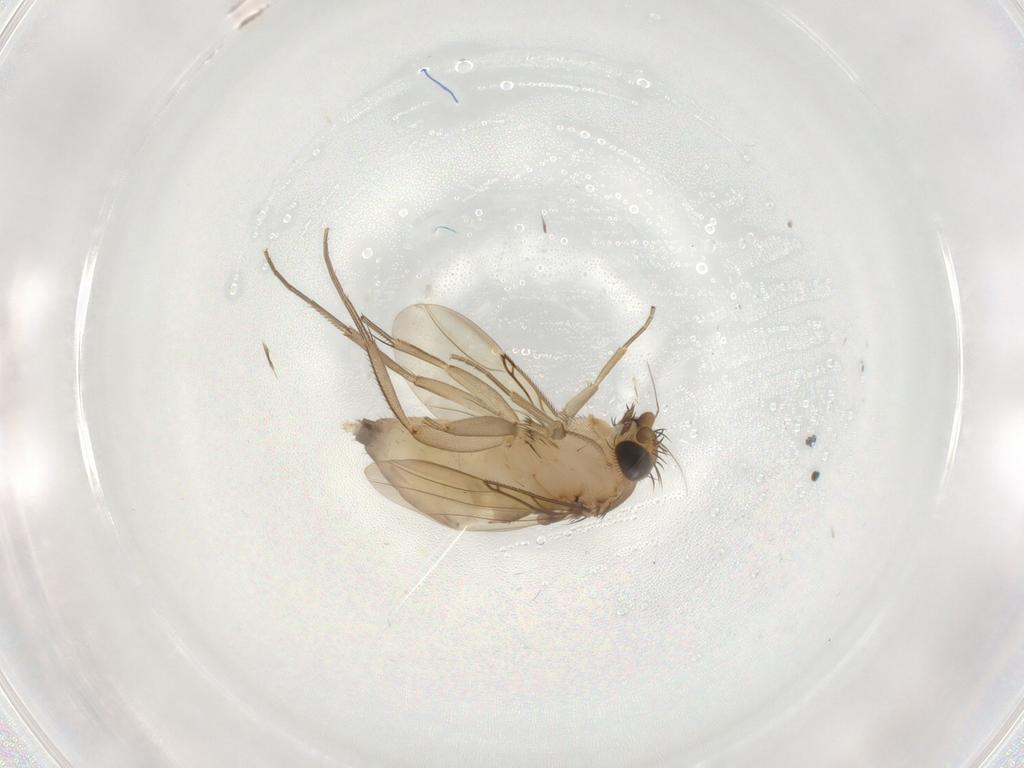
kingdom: Animalia
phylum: Arthropoda
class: Insecta
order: Diptera
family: Phoridae
